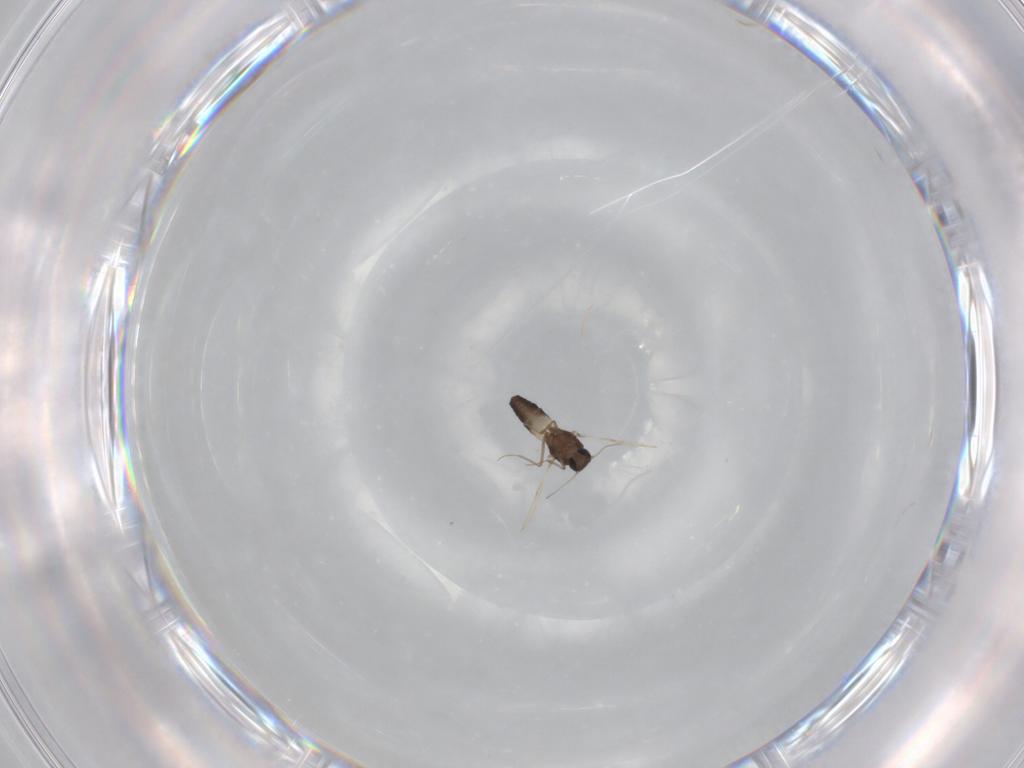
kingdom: Animalia
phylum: Arthropoda
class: Insecta
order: Diptera
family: Ceratopogonidae
